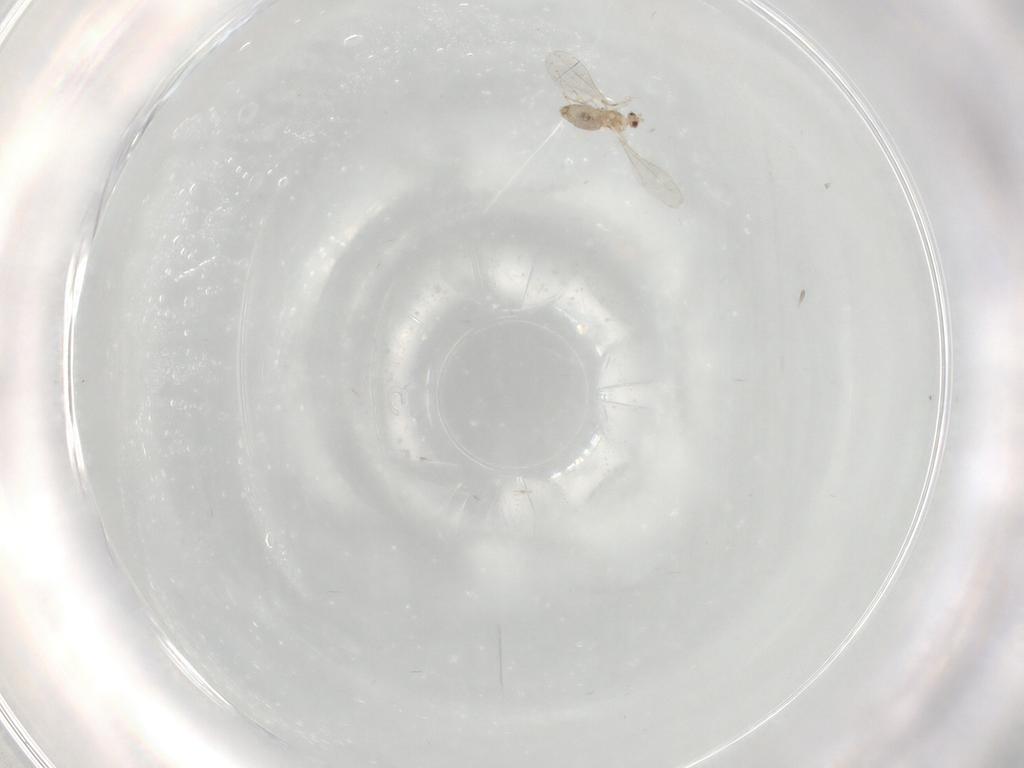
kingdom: Animalia
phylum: Arthropoda
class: Insecta
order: Diptera
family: Cecidomyiidae
